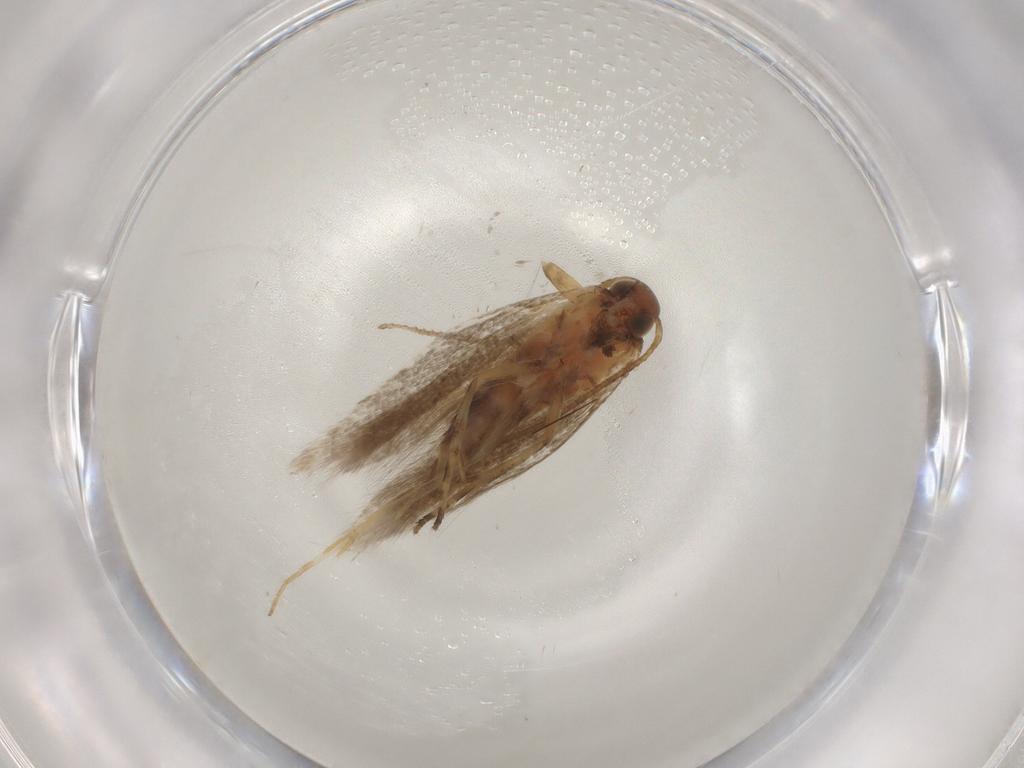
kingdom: Animalia
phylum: Arthropoda
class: Insecta
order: Lepidoptera
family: Gelechiidae
